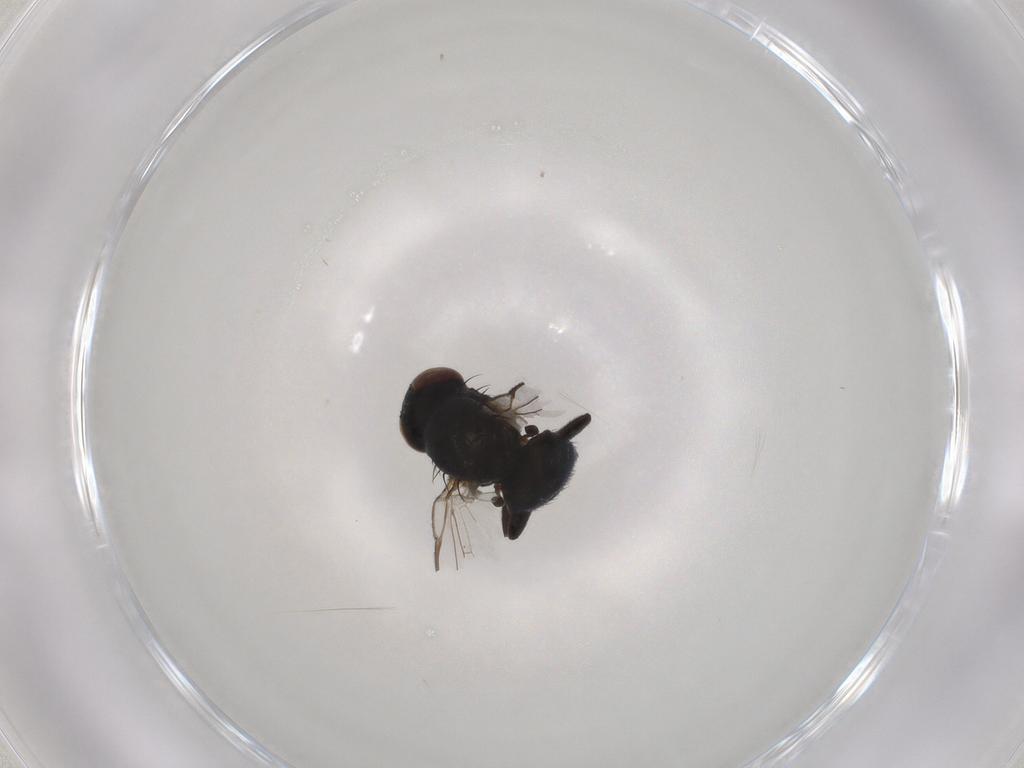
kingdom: Animalia
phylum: Arthropoda
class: Insecta
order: Diptera
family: Agromyzidae
